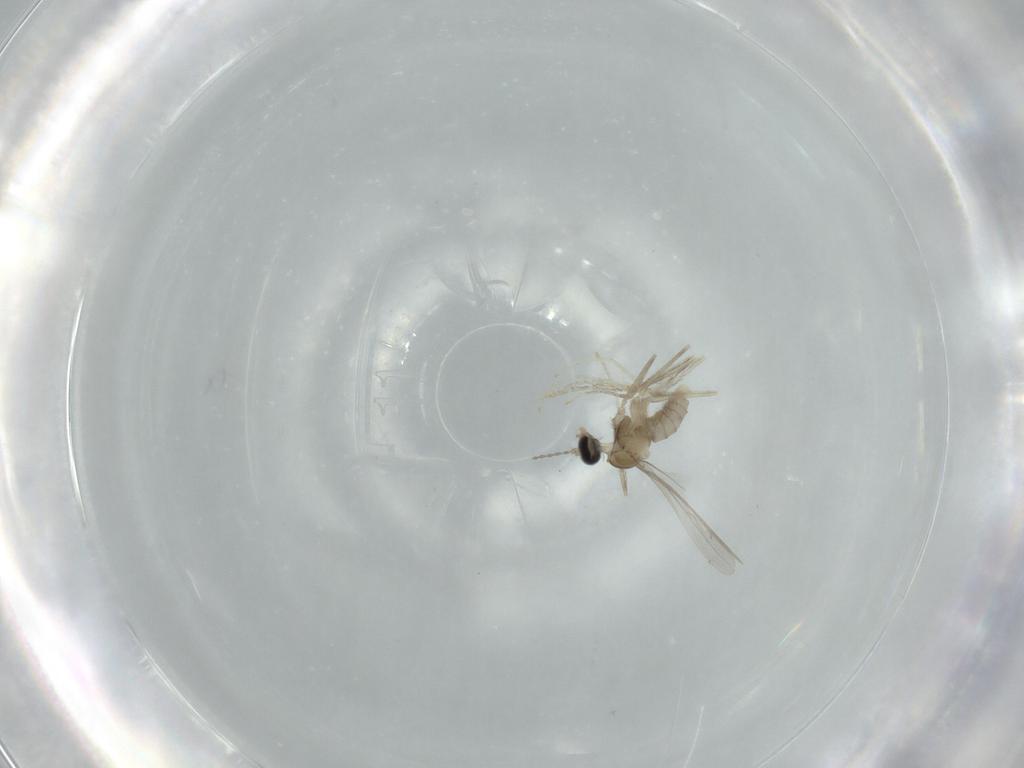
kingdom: Animalia
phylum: Arthropoda
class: Insecta
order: Diptera
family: Cecidomyiidae
